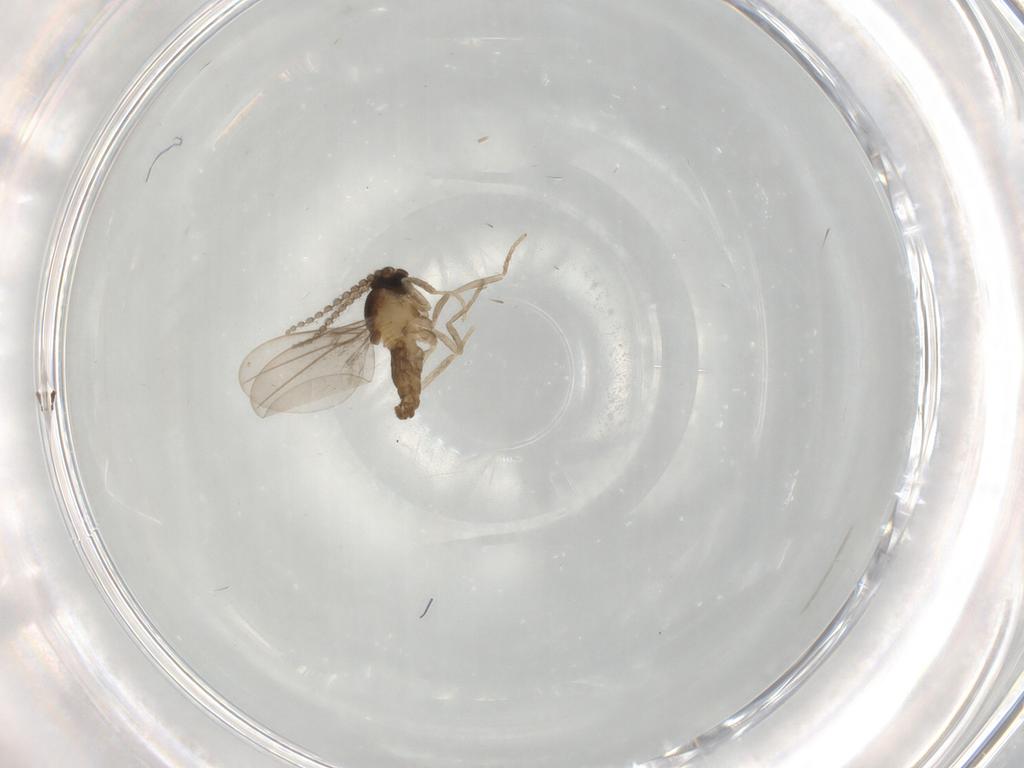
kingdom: Animalia
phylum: Arthropoda
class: Insecta
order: Diptera
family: Cecidomyiidae
